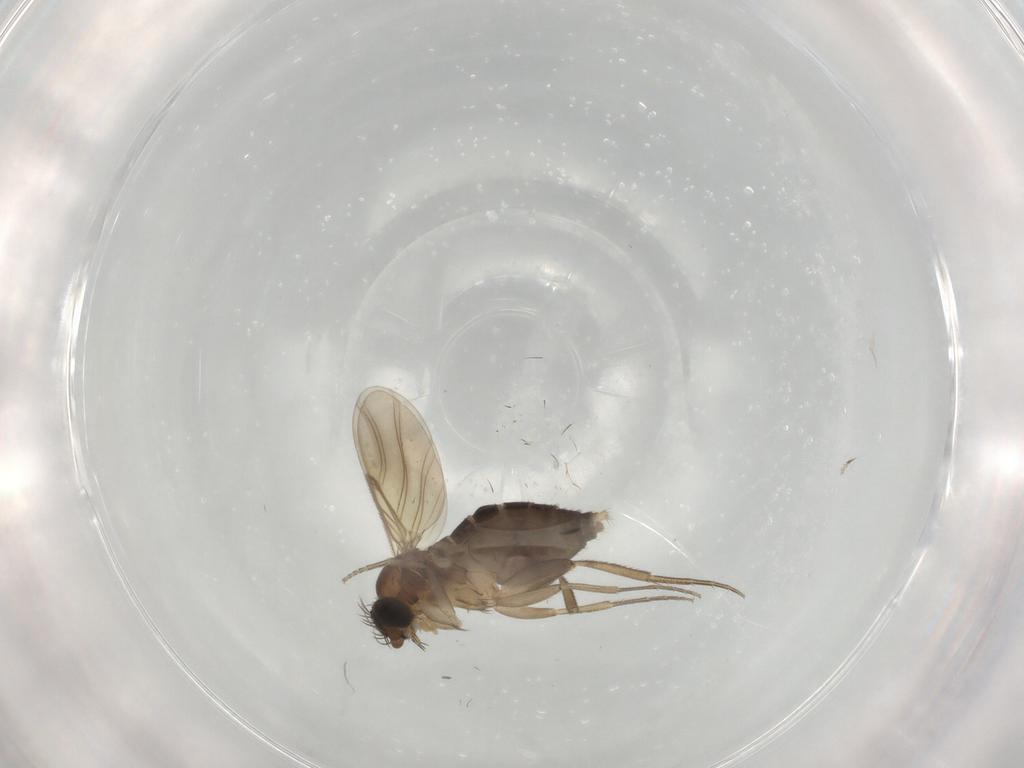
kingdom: Animalia
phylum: Arthropoda
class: Insecta
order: Diptera
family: Phoridae
